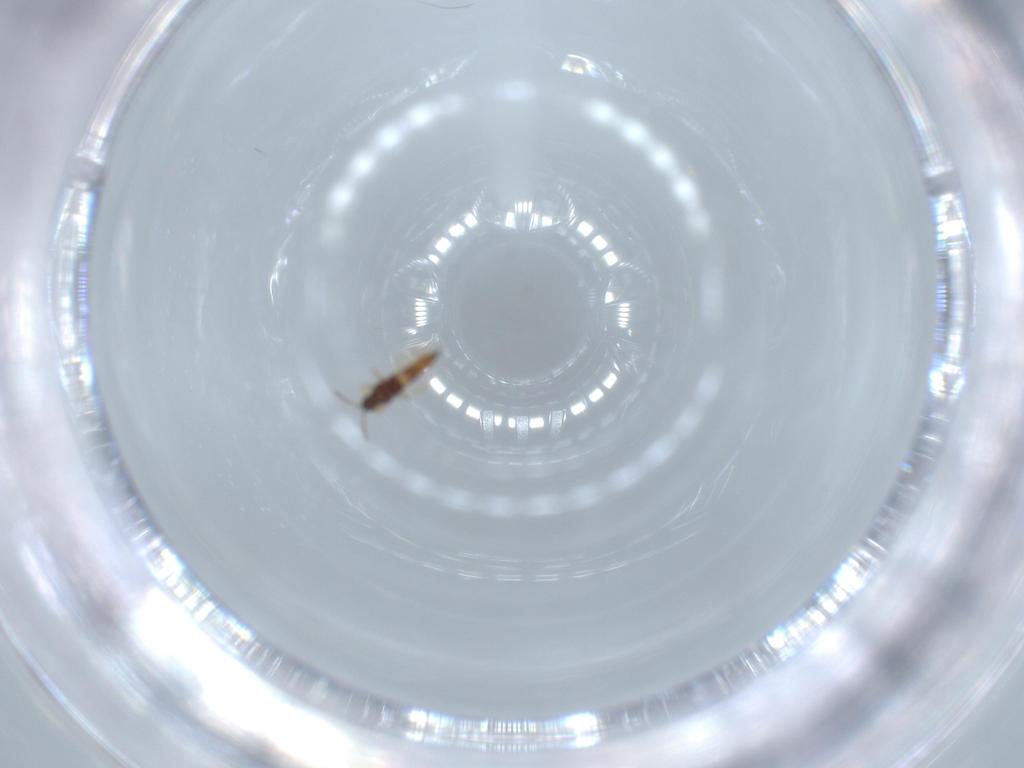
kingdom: Animalia
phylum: Arthropoda
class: Insecta
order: Thysanoptera
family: Phlaeothripidae
